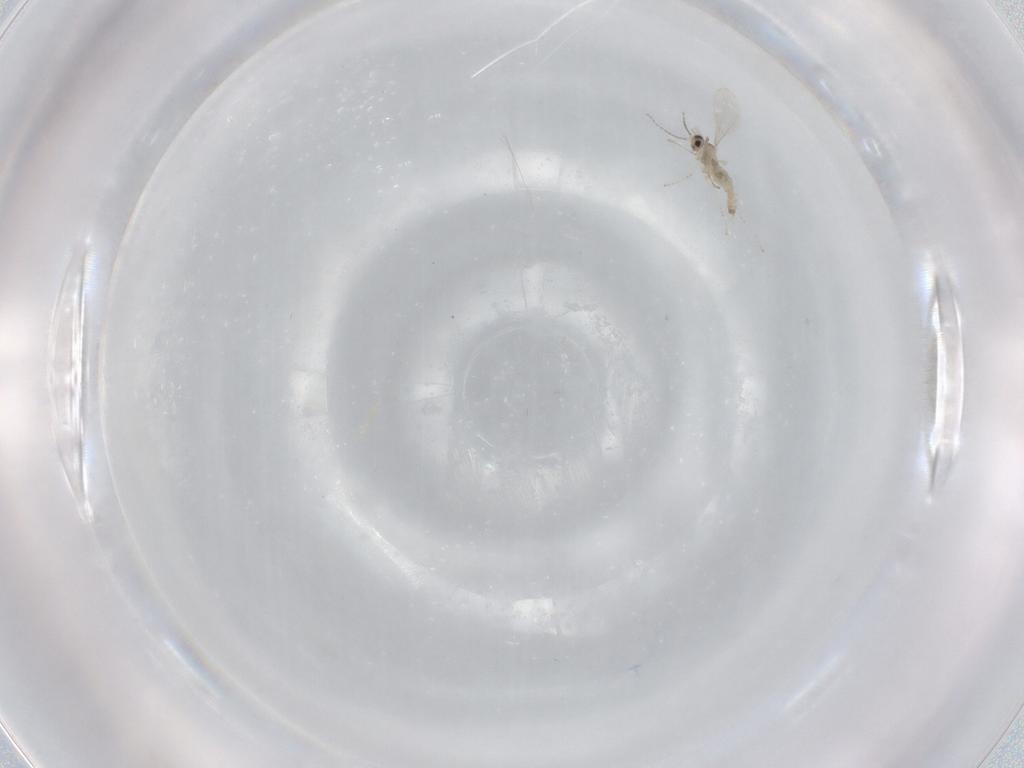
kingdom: Animalia
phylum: Arthropoda
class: Insecta
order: Diptera
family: Cecidomyiidae
